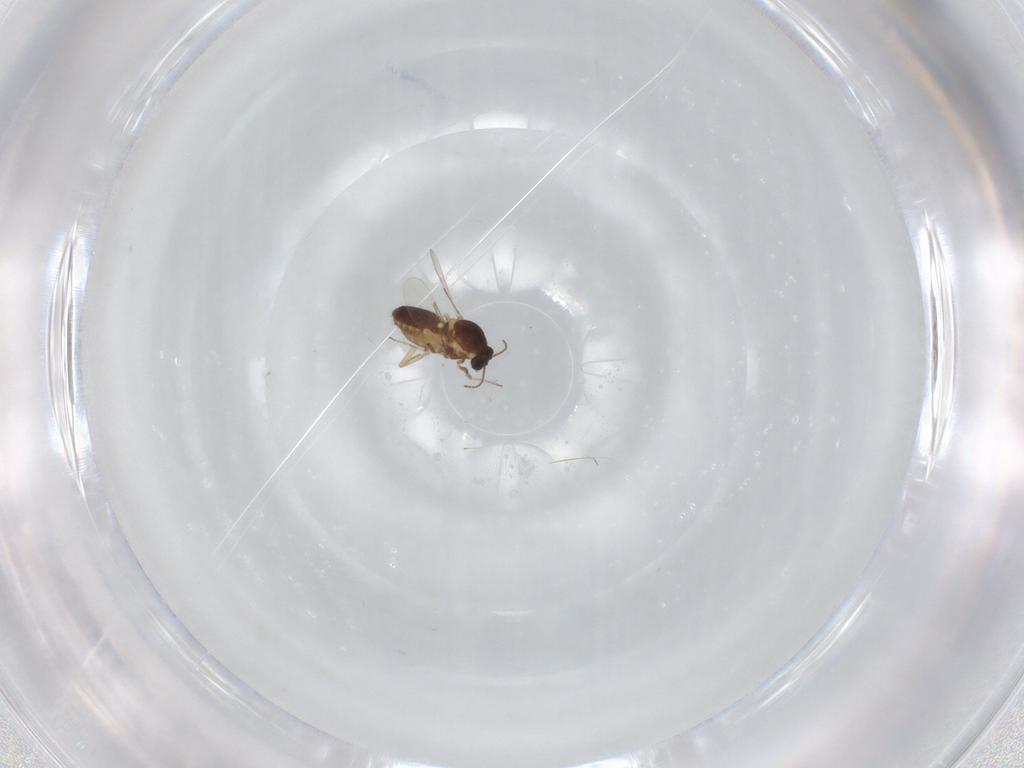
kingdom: Animalia
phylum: Arthropoda
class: Insecta
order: Diptera
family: Ceratopogonidae
